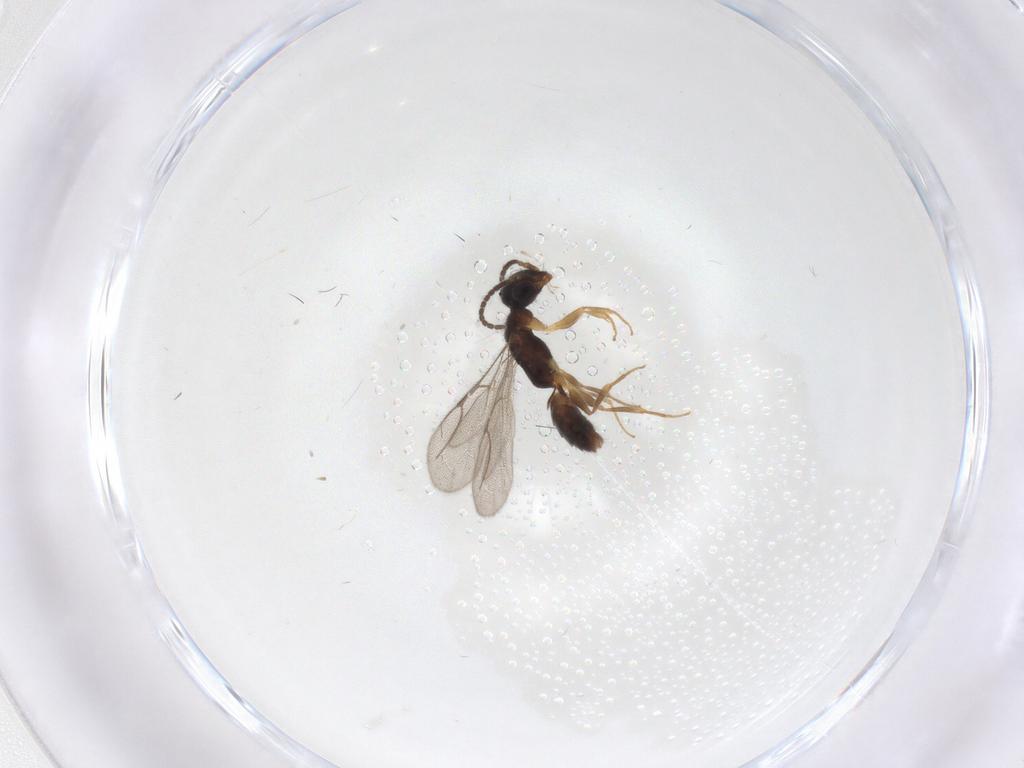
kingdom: Animalia
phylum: Arthropoda
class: Insecta
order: Hymenoptera
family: Bethylidae
